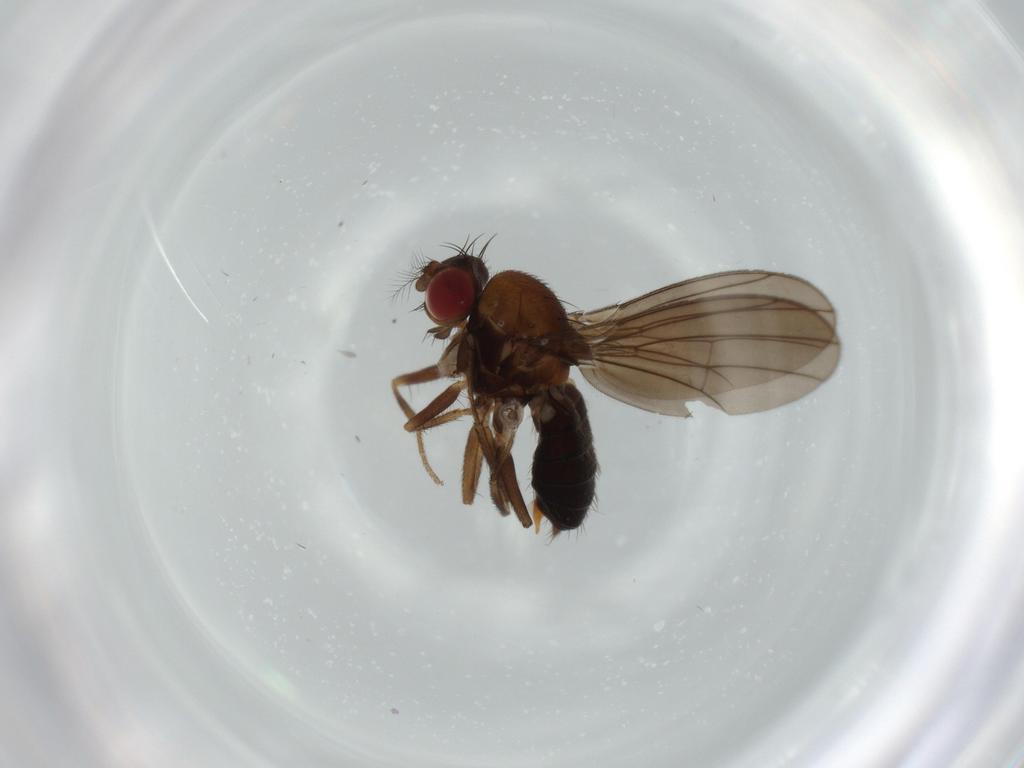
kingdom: Animalia
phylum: Arthropoda
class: Insecta
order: Diptera
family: Drosophilidae
